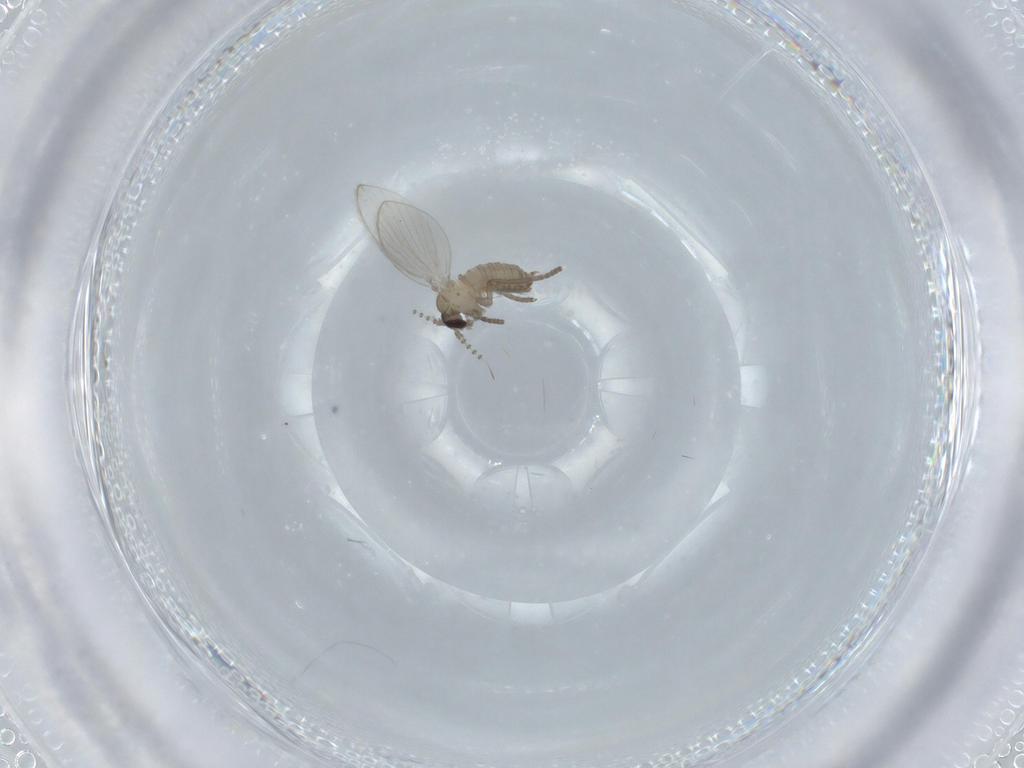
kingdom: Animalia
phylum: Arthropoda
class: Insecta
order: Diptera
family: Psychodidae
